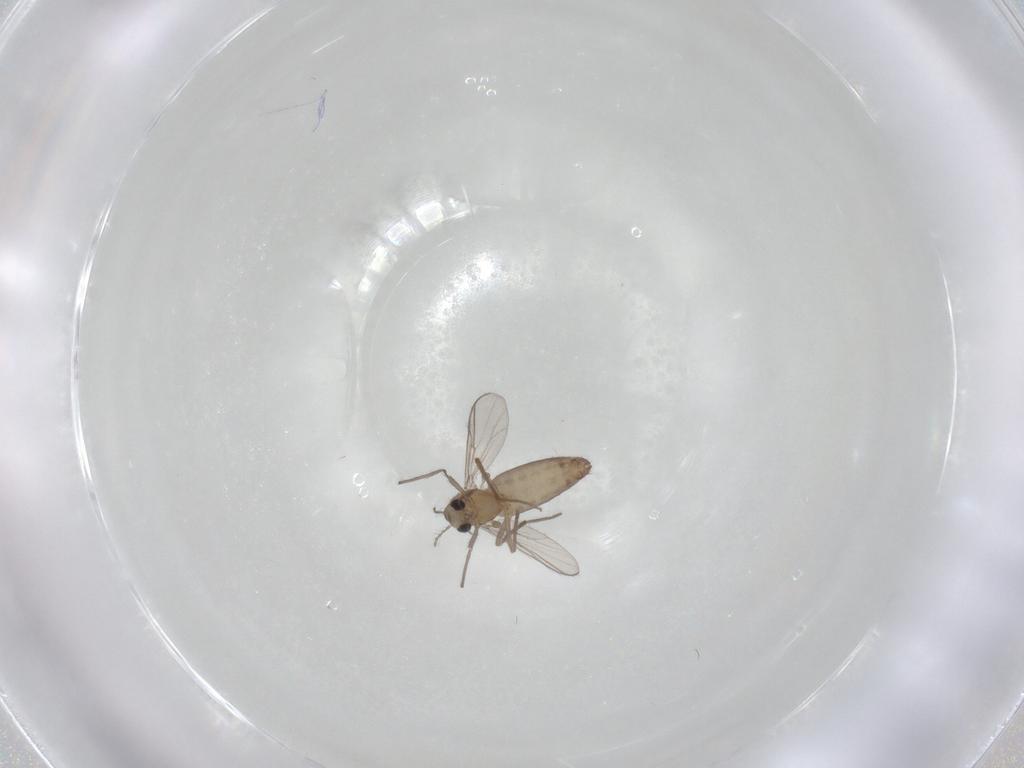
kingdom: Animalia
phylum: Arthropoda
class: Insecta
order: Diptera
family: Chironomidae
